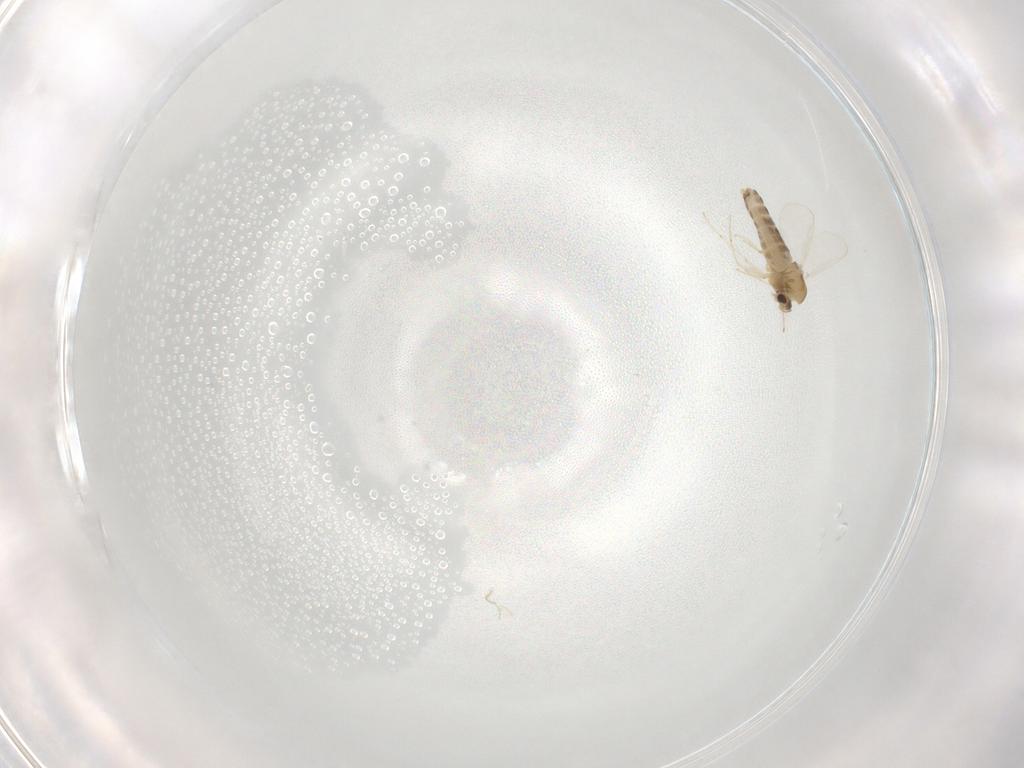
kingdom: Animalia
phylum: Arthropoda
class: Insecta
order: Diptera
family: Chironomidae
